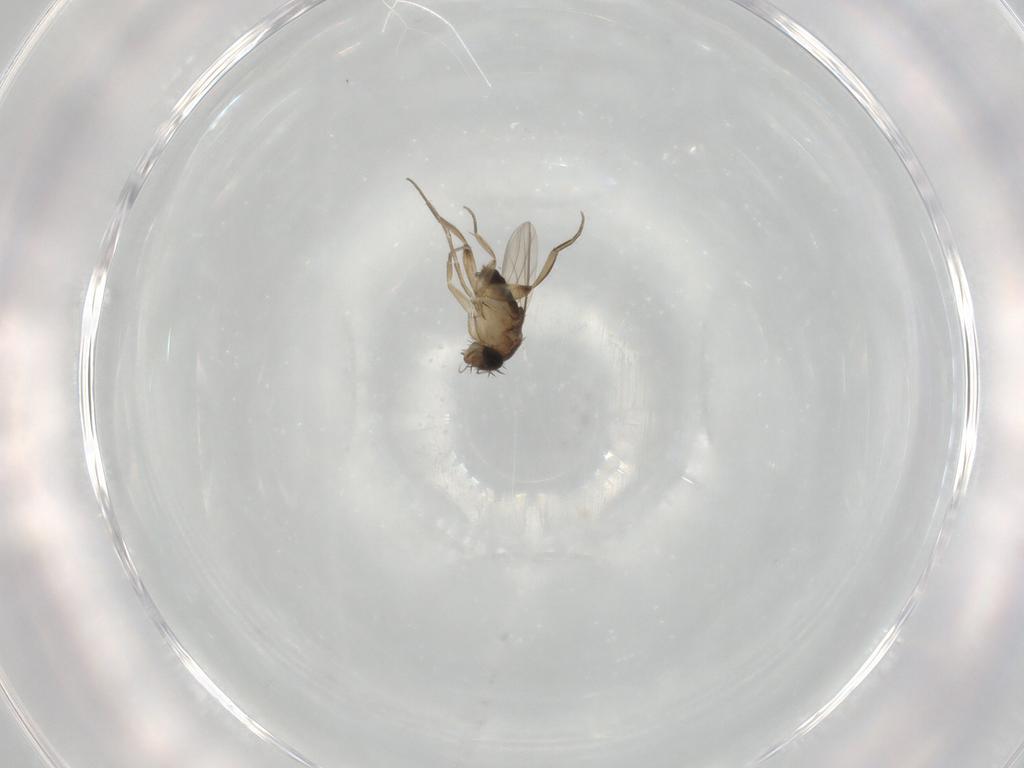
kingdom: Animalia
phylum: Arthropoda
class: Insecta
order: Diptera
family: Phoridae
